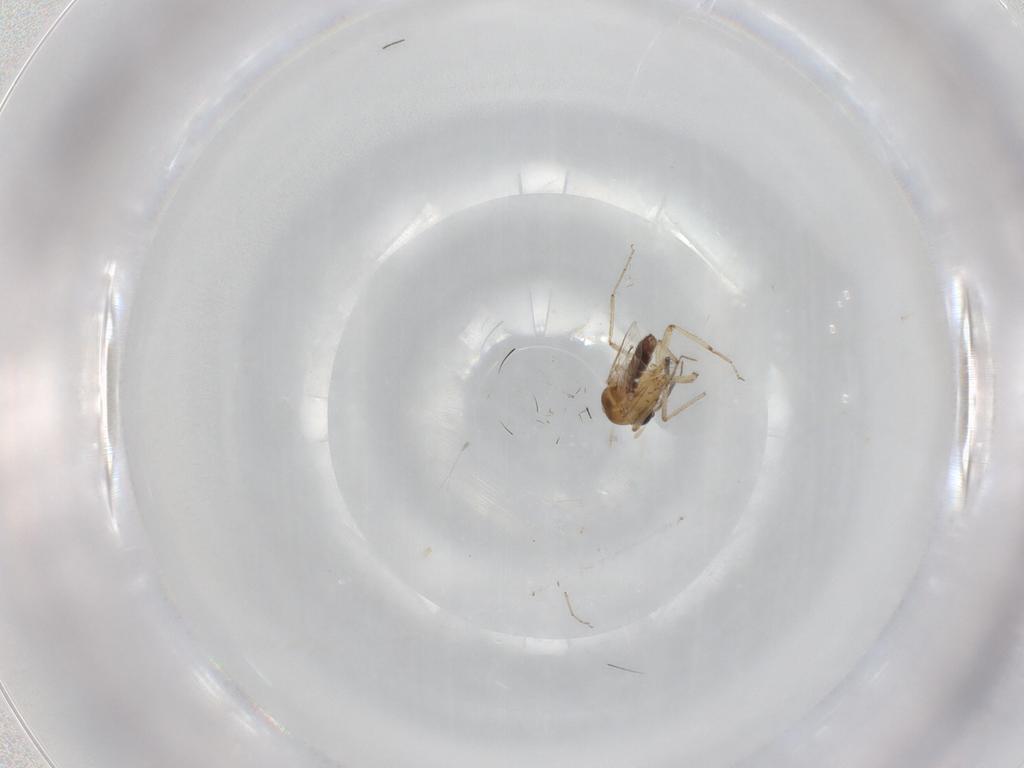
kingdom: Animalia
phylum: Arthropoda
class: Insecta
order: Diptera
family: Ceratopogonidae
